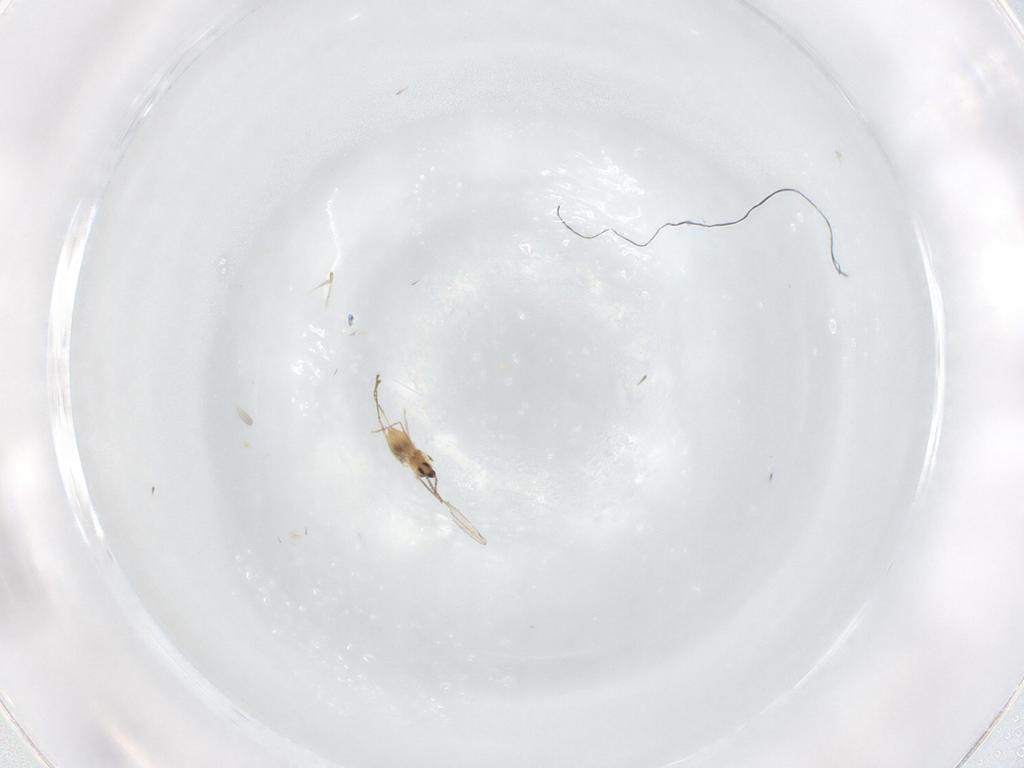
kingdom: Animalia
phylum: Arthropoda
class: Insecta
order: Diptera
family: Cecidomyiidae
